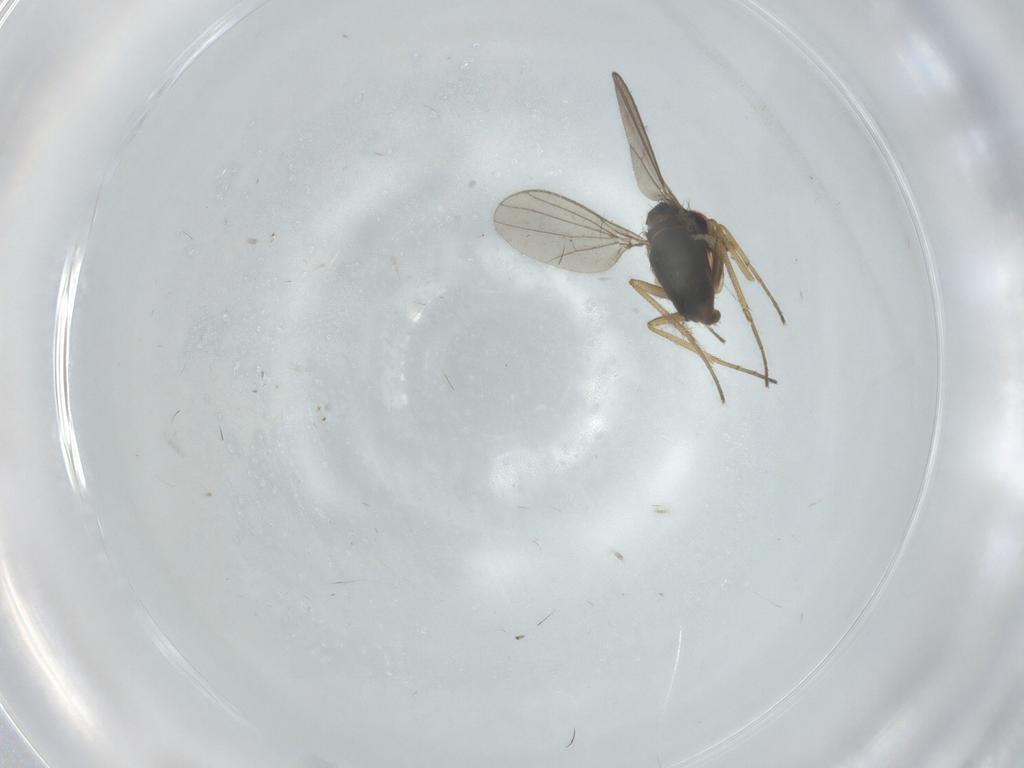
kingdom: Animalia
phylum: Arthropoda
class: Insecta
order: Diptera
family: Dolichopodidae
